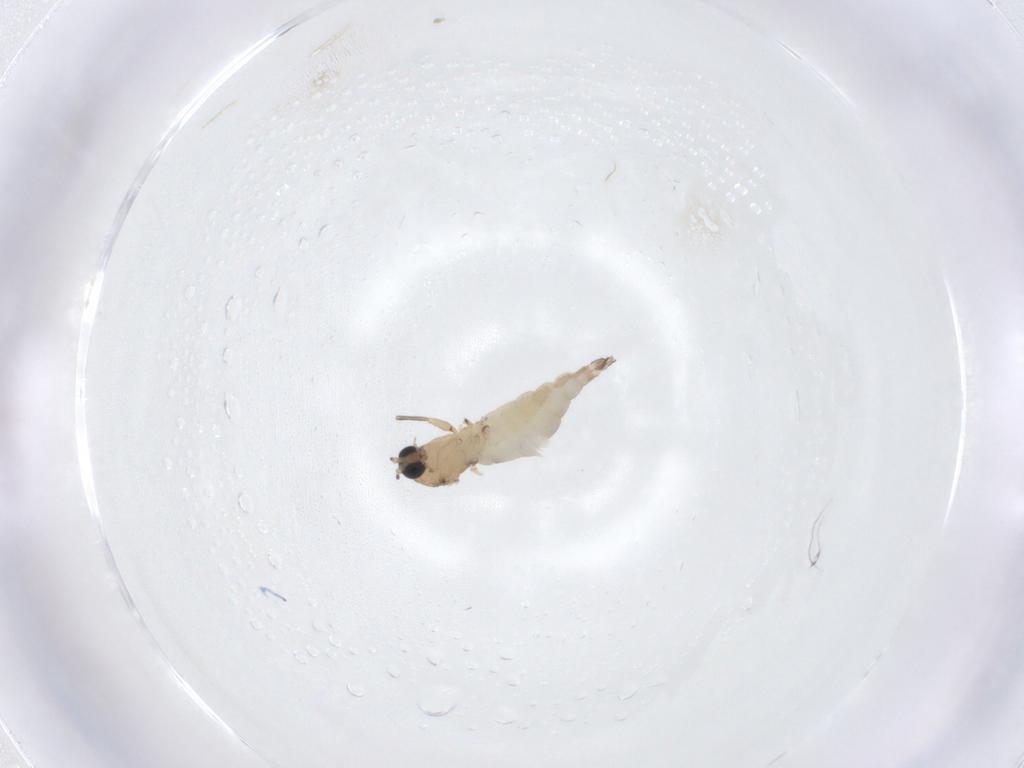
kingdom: Animalia
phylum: Arthropoda
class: Insecta
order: Diptera
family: Sciaridae
